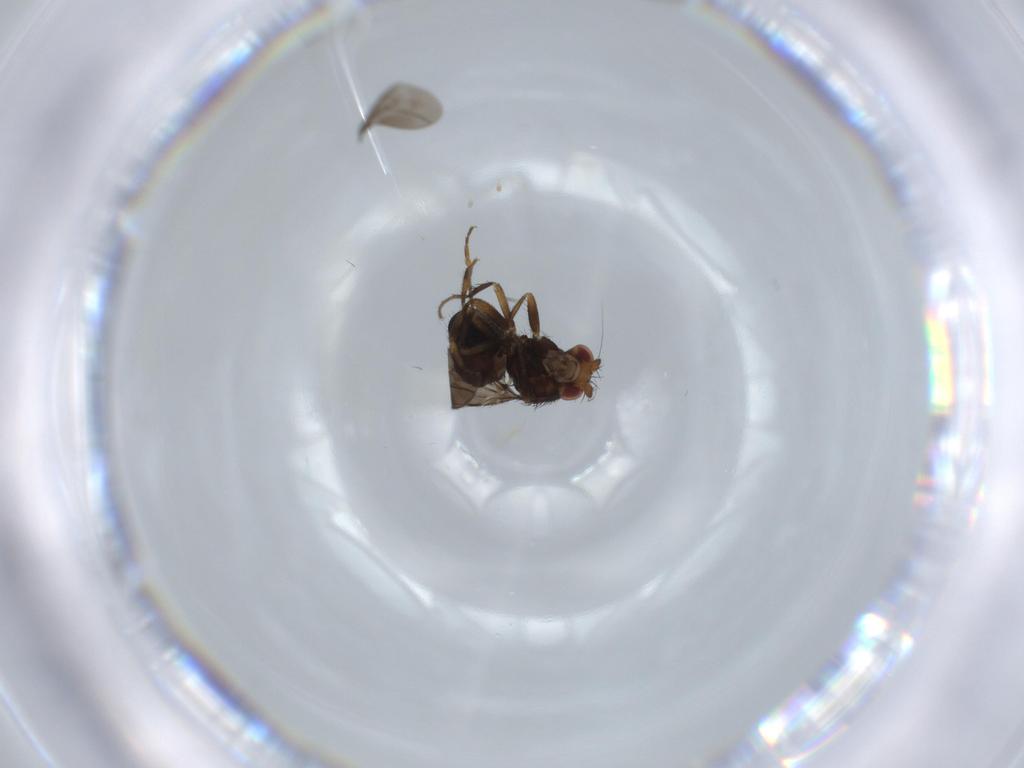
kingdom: Animalia
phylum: Arthropoda
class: Insecta
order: Diptera
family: Sphaeroceridae
